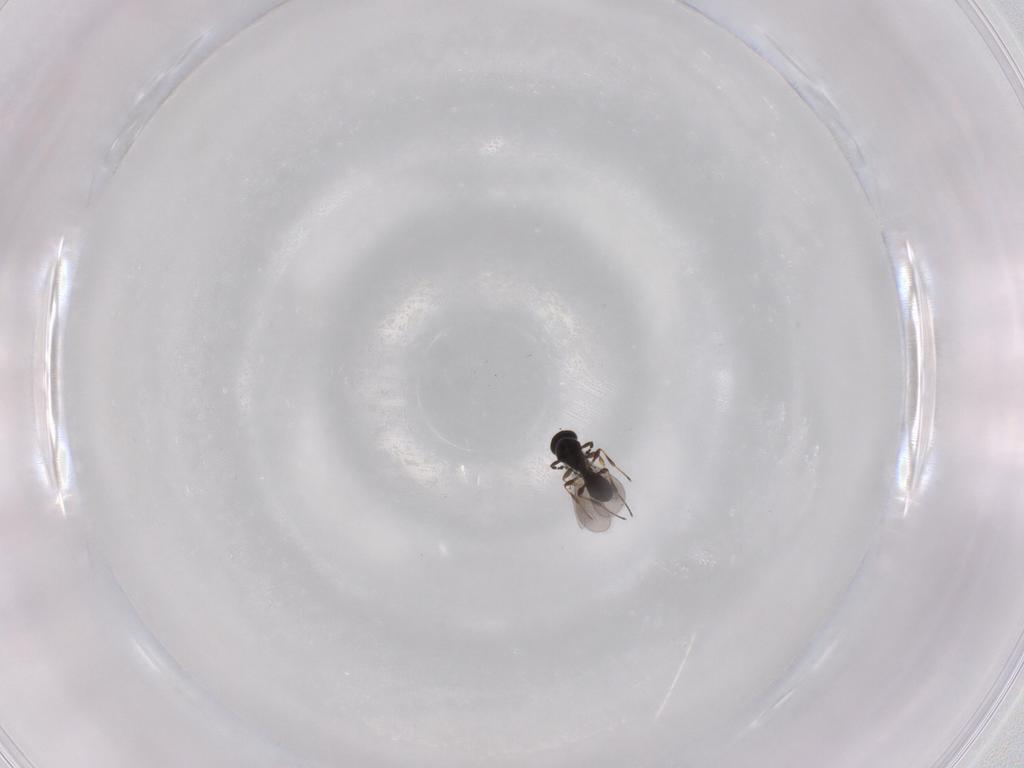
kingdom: Animalia
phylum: Arthropoda
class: Insecta
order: Hymenoptera
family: Platygastridae
